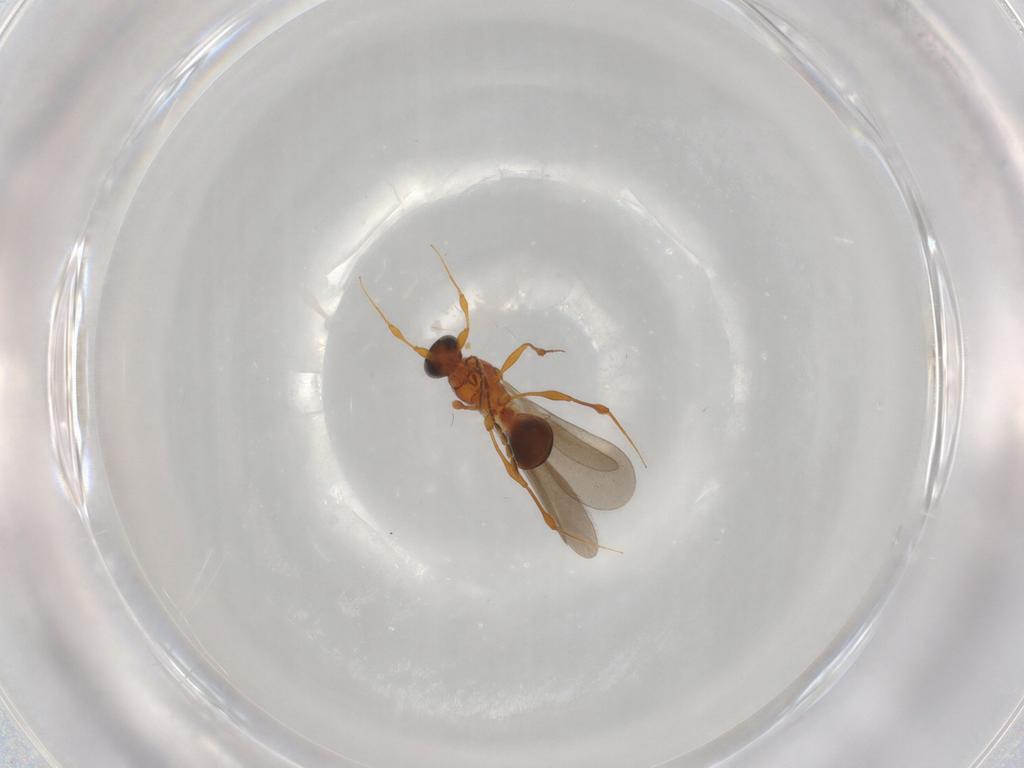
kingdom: Animalia
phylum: Arthropoda
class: Insecta
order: Hymenoptera
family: Platygastridae
